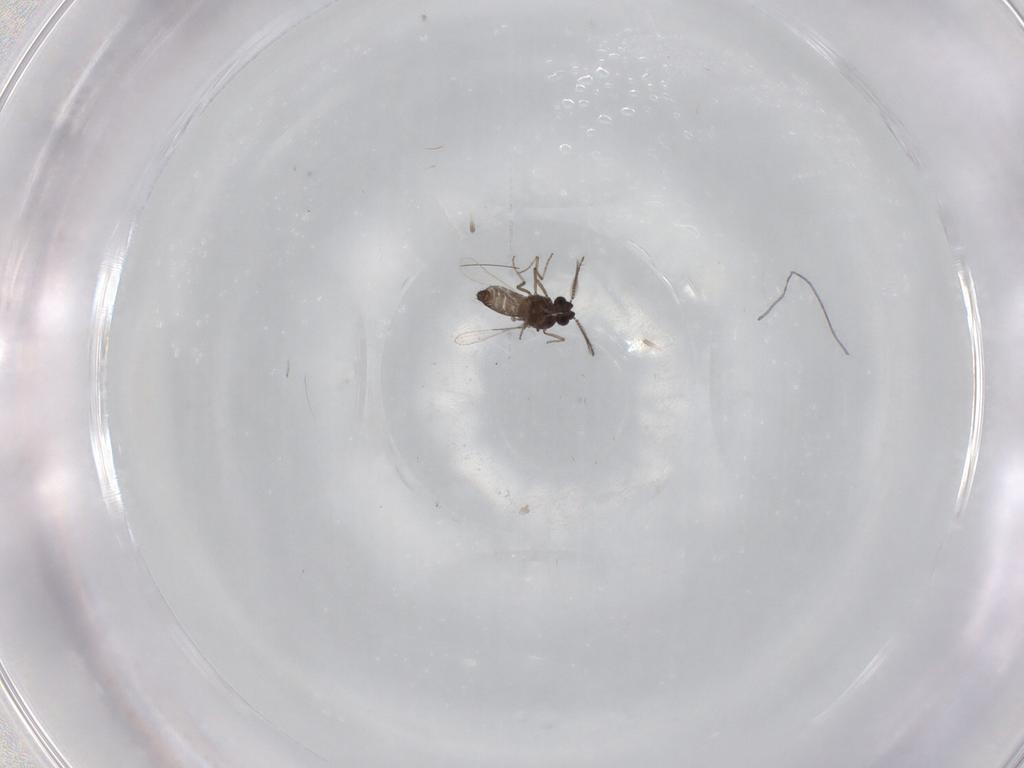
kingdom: Animalia
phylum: Arthropoda
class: Insecta
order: Diptera
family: Ceratopogonidae
